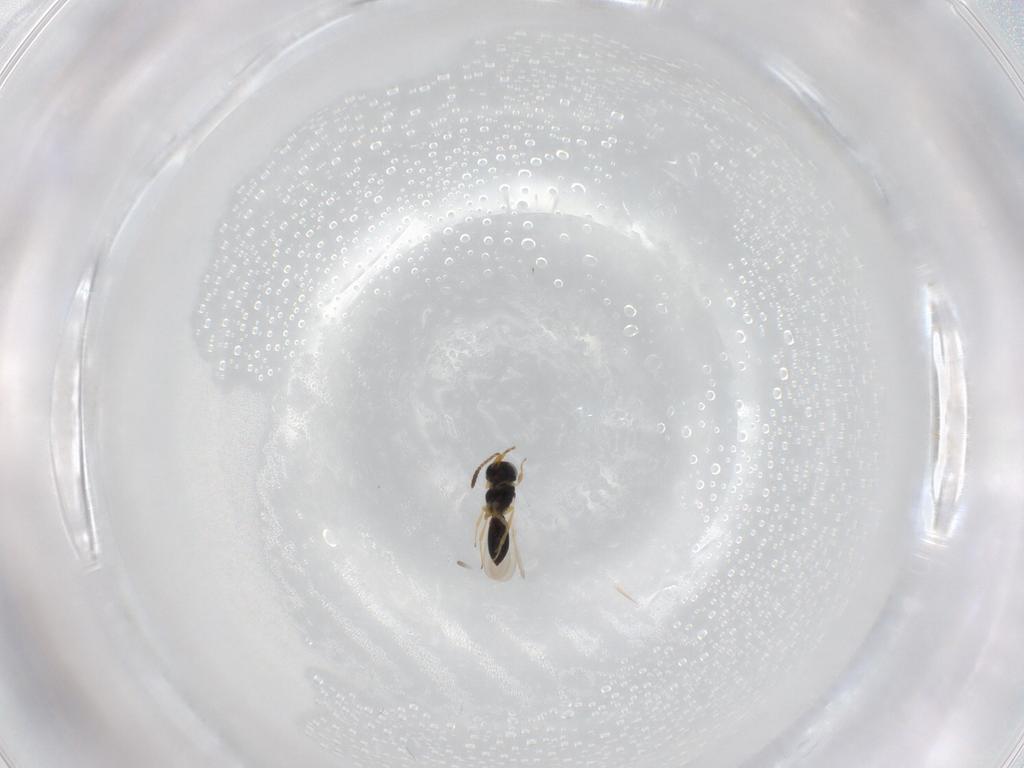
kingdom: Animalia
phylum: Arthropoda
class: Insecta
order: Hymenoptera
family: Scelionidae
